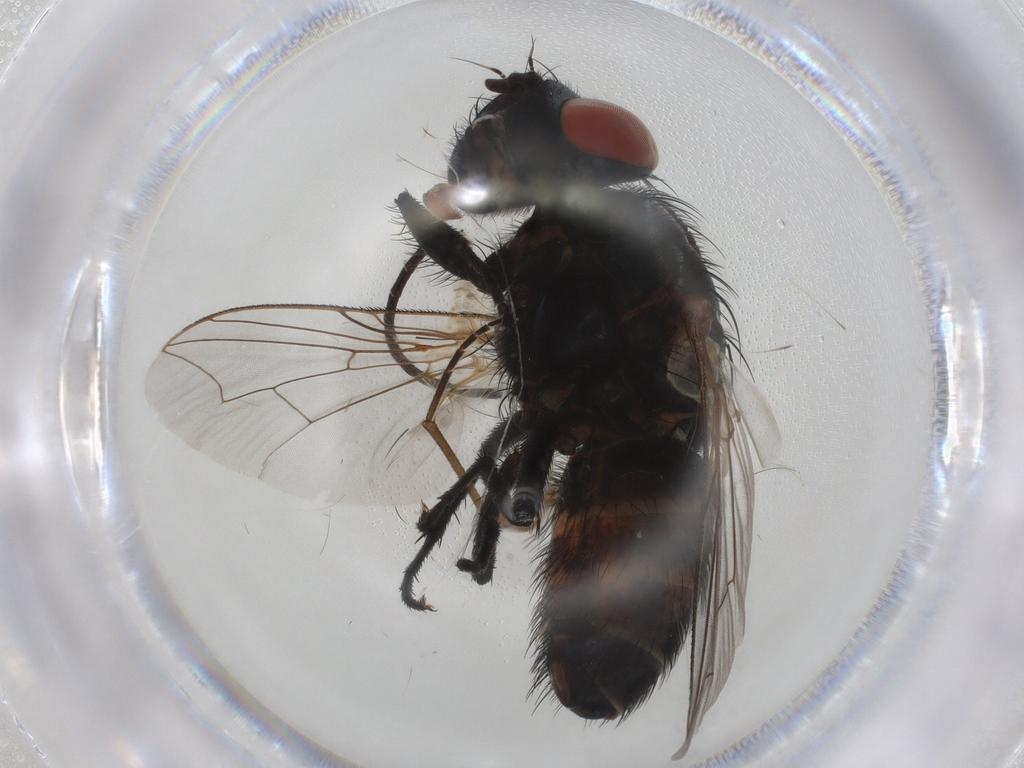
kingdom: Animalia
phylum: Arthropoda
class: Insecta
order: Diptera
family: Sarcophagidae
